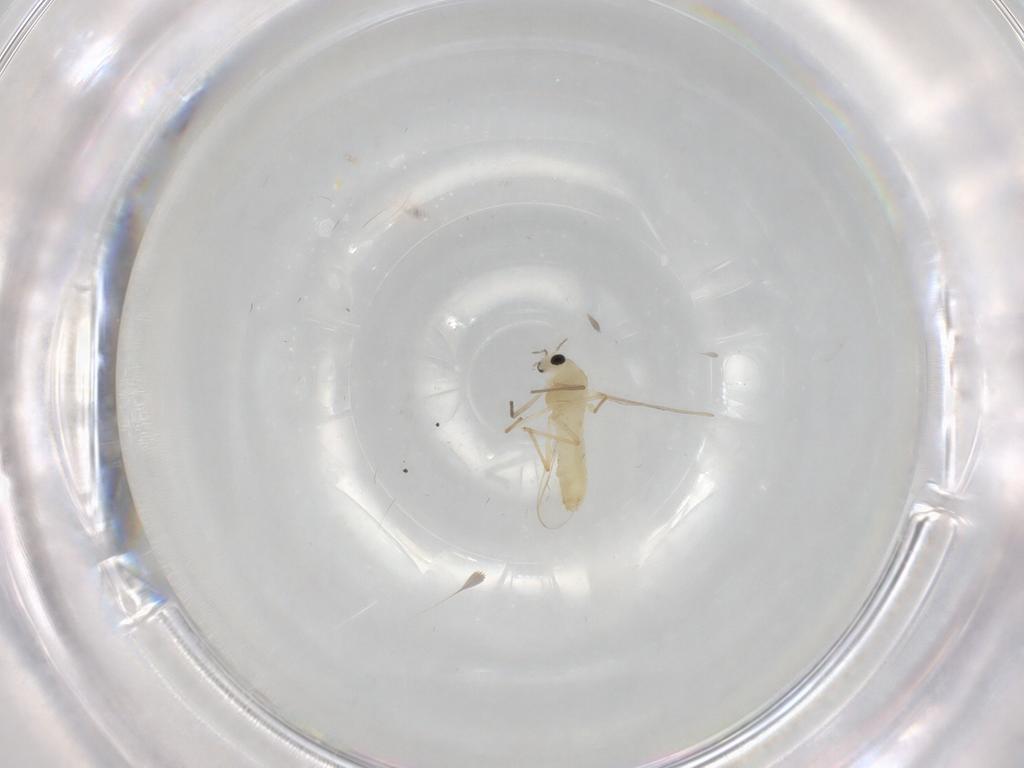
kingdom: Animalia
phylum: Arthropoda
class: Insecta
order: Diptera
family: Chironomidae
